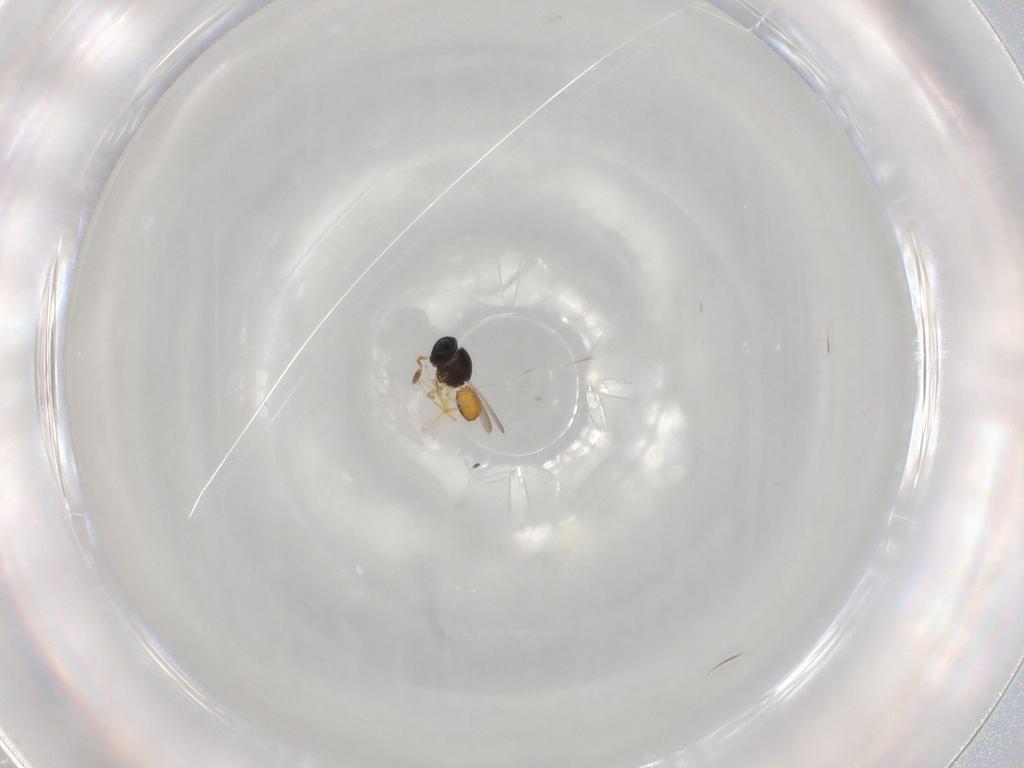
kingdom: Animalia
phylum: Arthropoda
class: Insecta
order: Hymenoptera
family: Scelionidae
